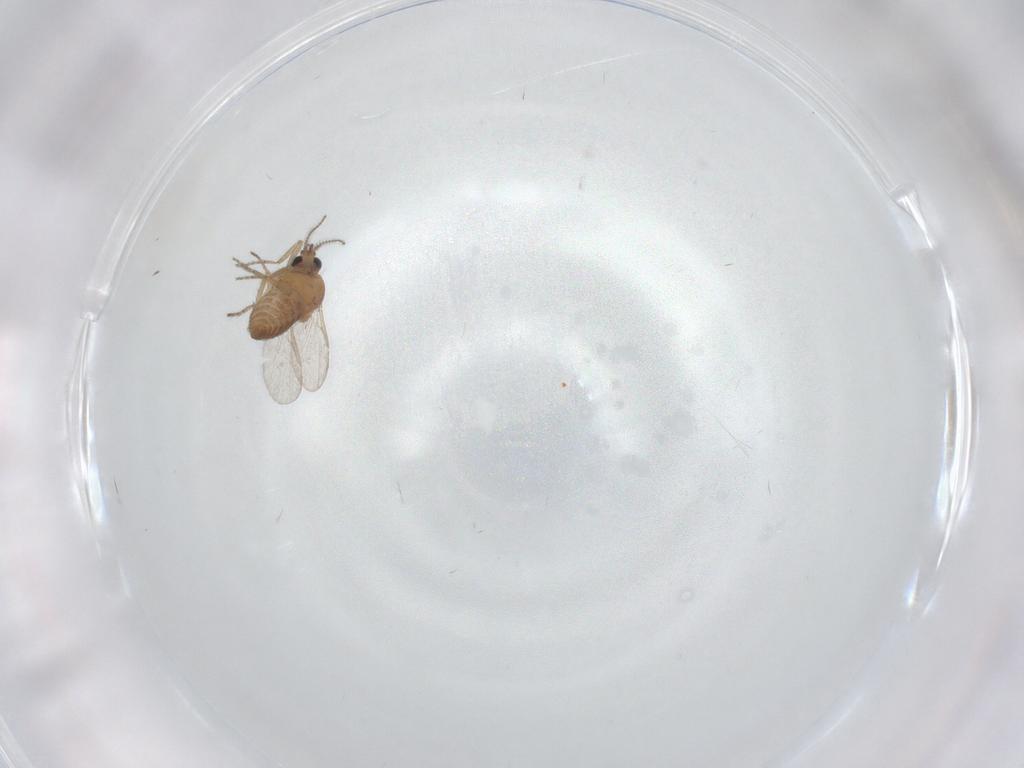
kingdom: Animalia
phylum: Arthropoda
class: Insecta
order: Diptera
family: Ceratopogonidae
